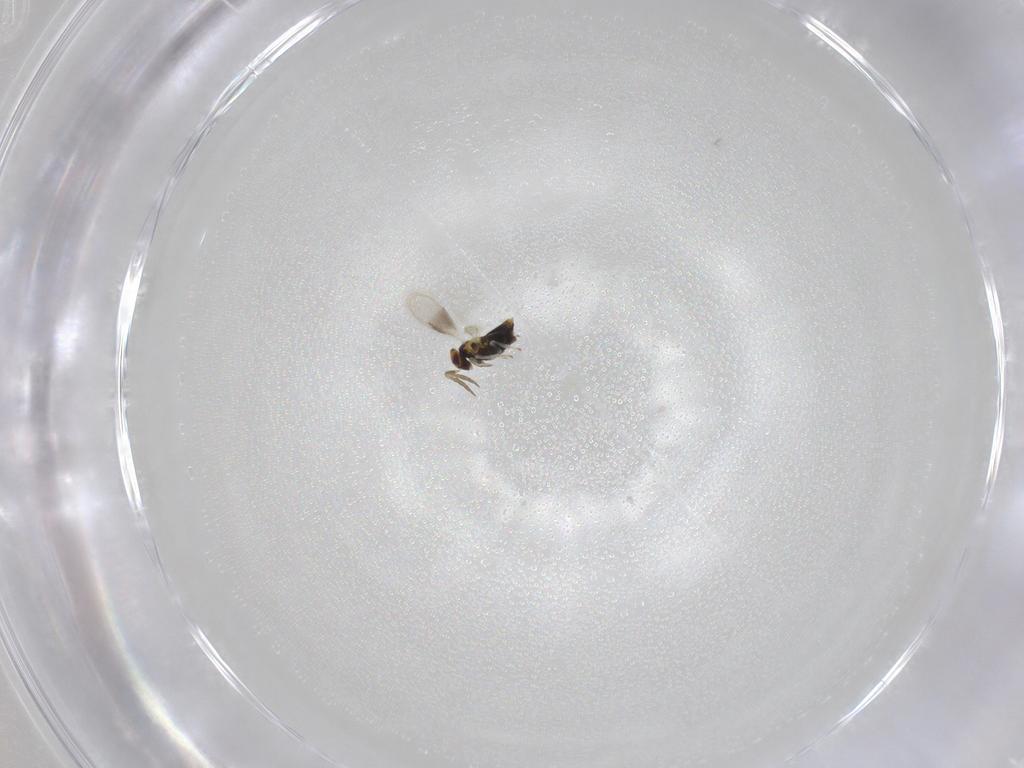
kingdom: Animalia
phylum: Arthropoda
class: Insecta
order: Hymenoptera
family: Aphelinidae
